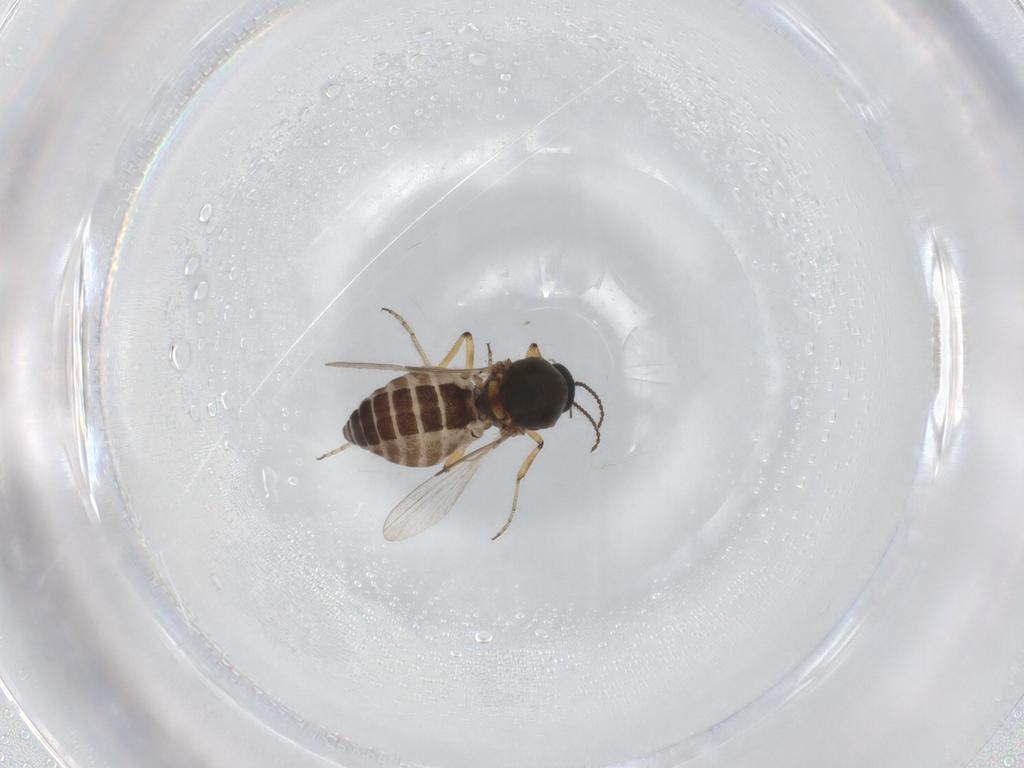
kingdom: Animalia
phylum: Arthropoda
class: Insecta
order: Diptera
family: Ceratopogonidae
